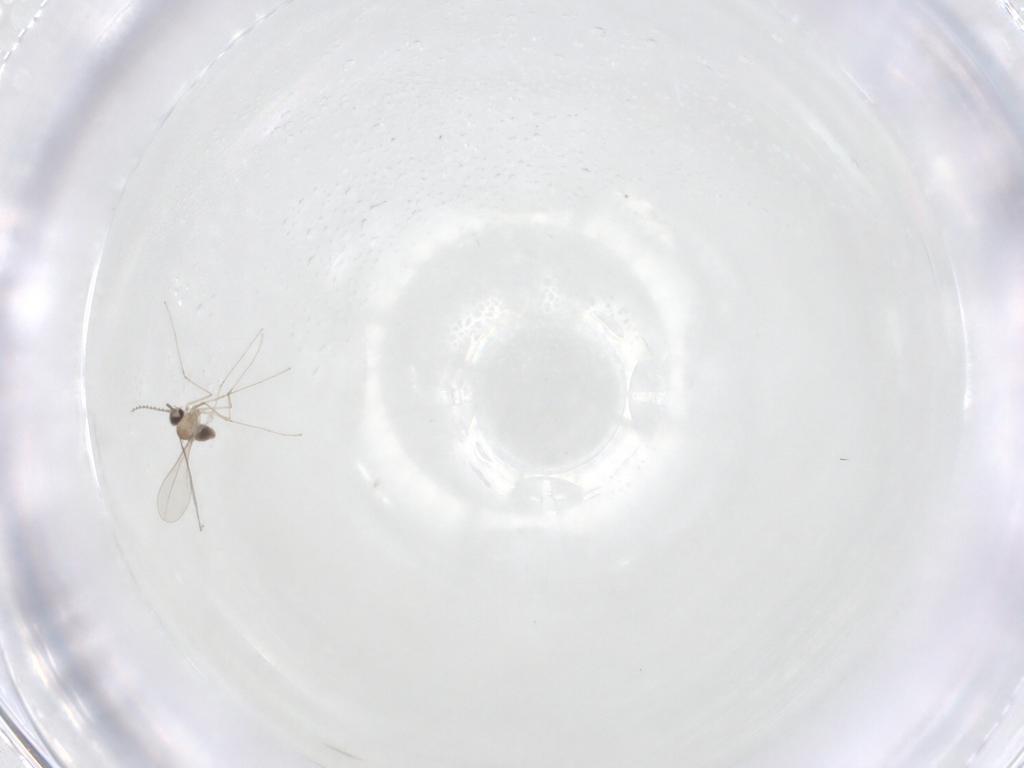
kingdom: Animalia
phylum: Arthropoda
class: Insecta
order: Diptera
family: Cecidomyiidae
